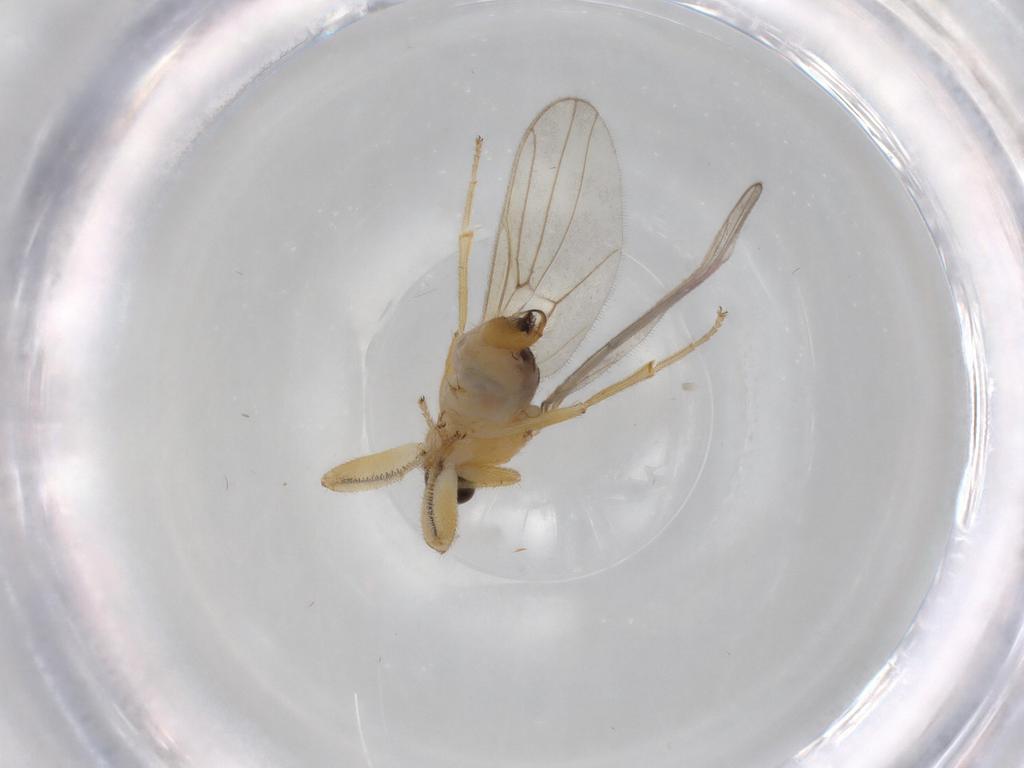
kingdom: Animalia
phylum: Arthropoda
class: Insecta
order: Diptera
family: Hybotidae
